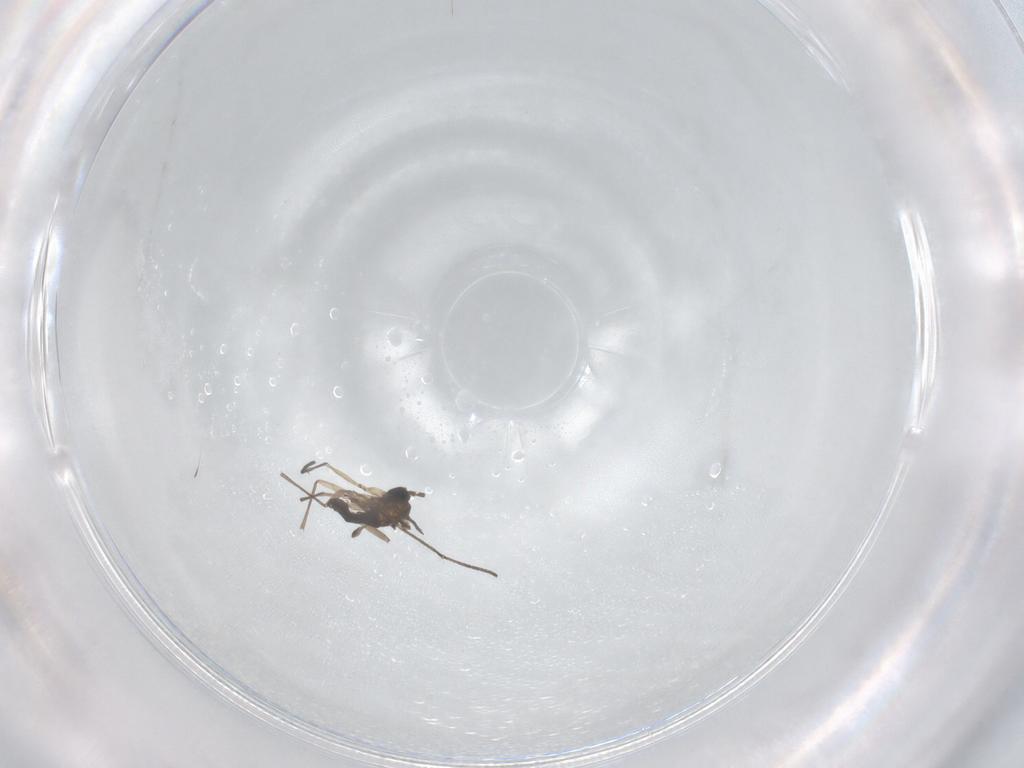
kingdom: Animalia
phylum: Arthropoda
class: Insecta
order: Diptera
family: Sciaridae
